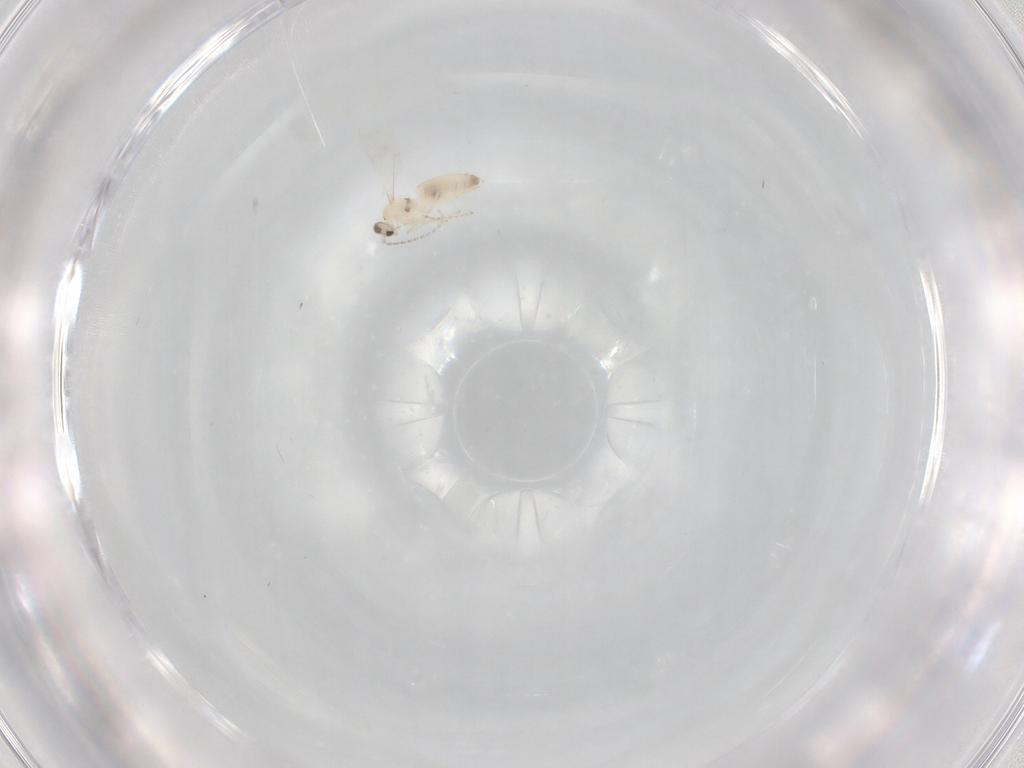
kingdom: Animalia
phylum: Arthropoda
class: Insecta
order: Diptera
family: Cecidomyiidae
